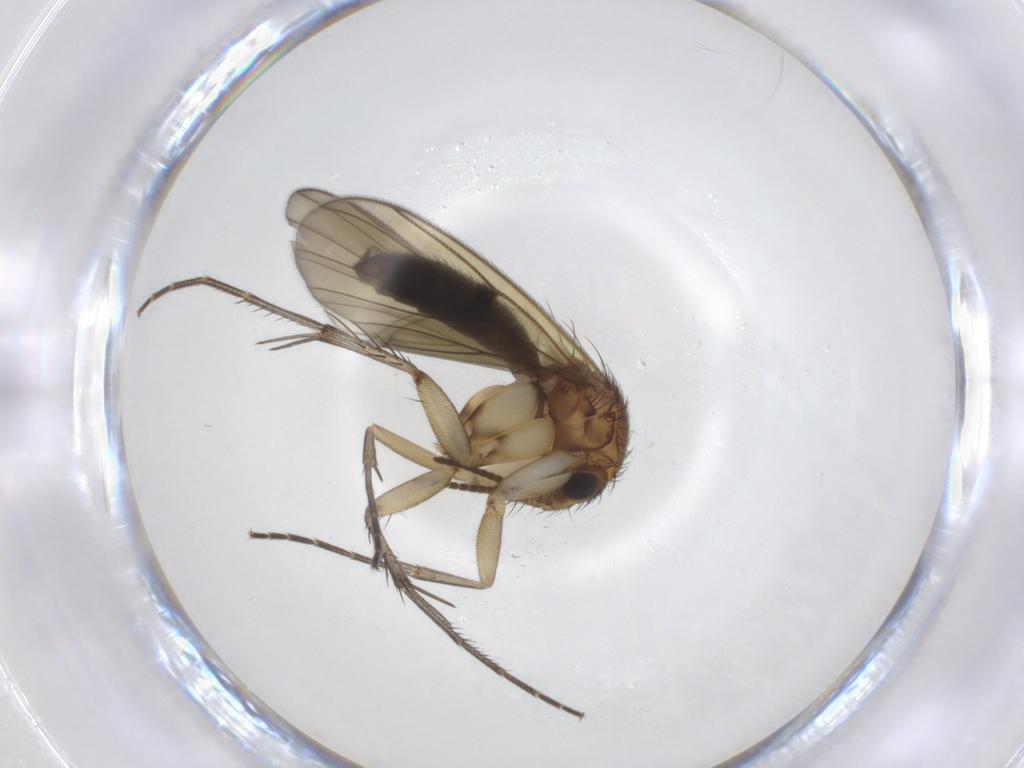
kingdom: Animalia
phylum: Arthropoda
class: Insecta
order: Diptera
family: Mycetophilidae
